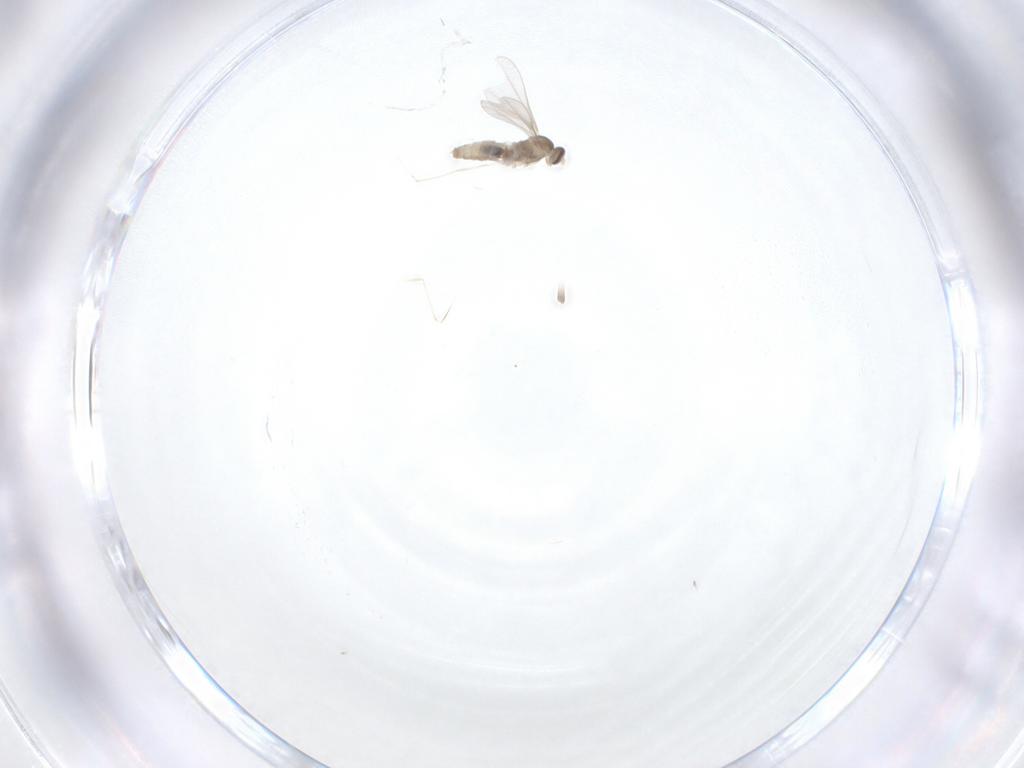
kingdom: Animalia
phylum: Arthropoda
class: Insecta
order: Diptera
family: Cecidomyiidae
